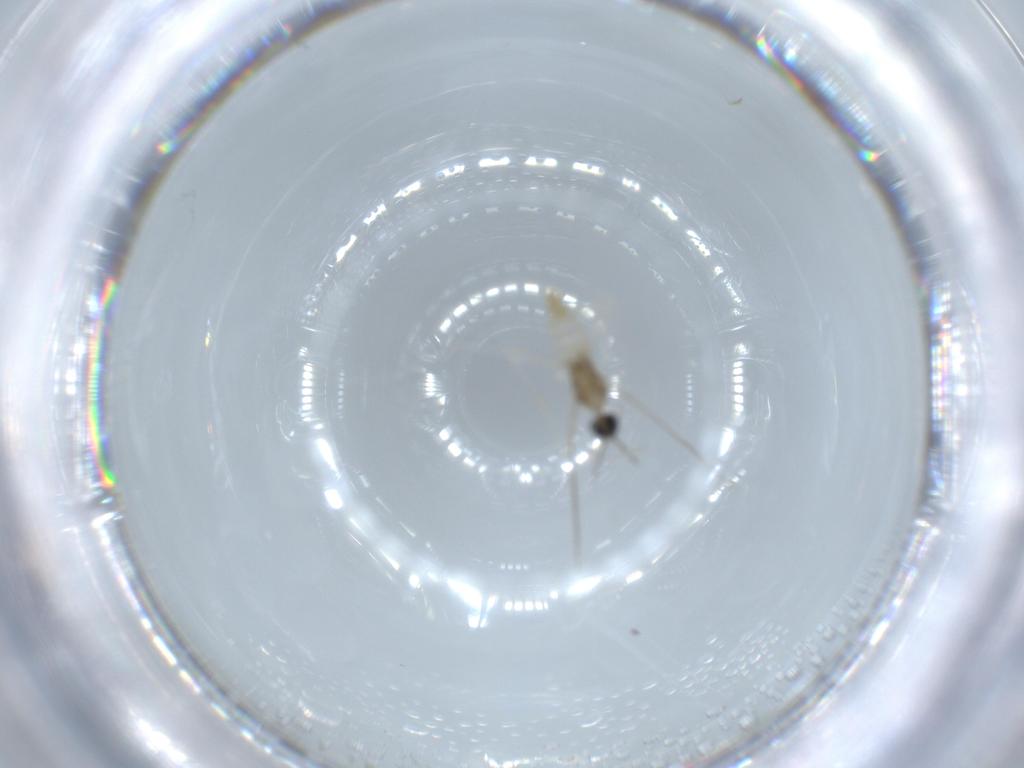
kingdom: Animalia
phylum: Arthropoda
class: Insecta
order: Diptera
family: Cecidomyiidae
